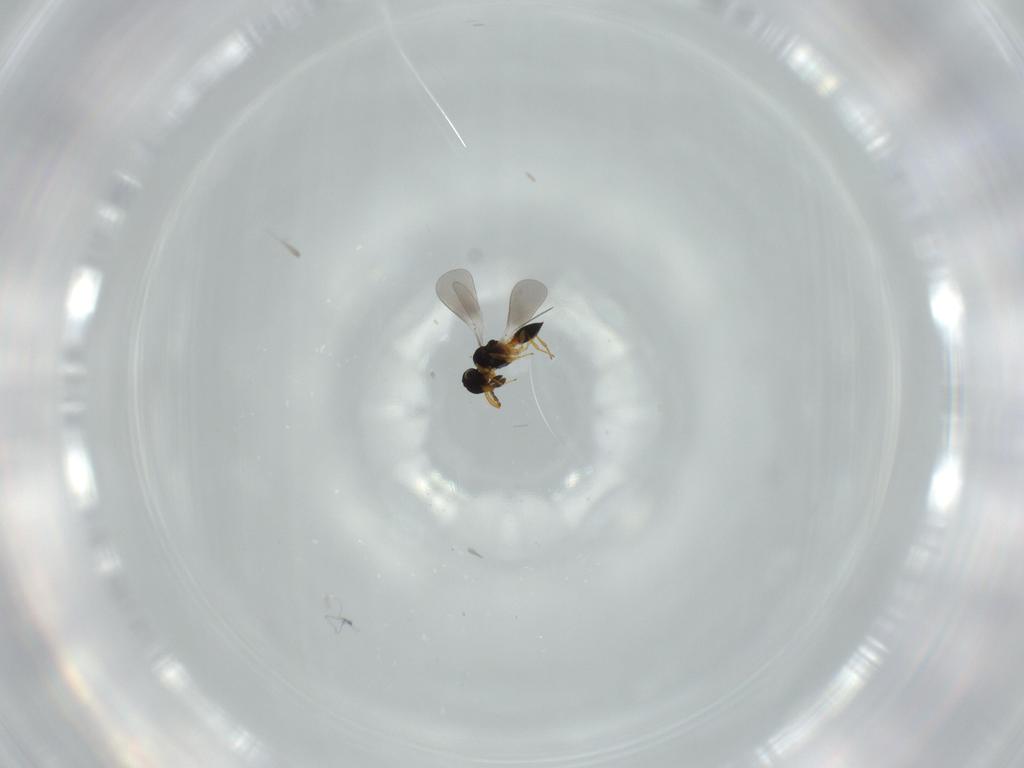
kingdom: Animalia
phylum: Arthropoda
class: Insecta
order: Hymenoptera
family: Platygastridae
